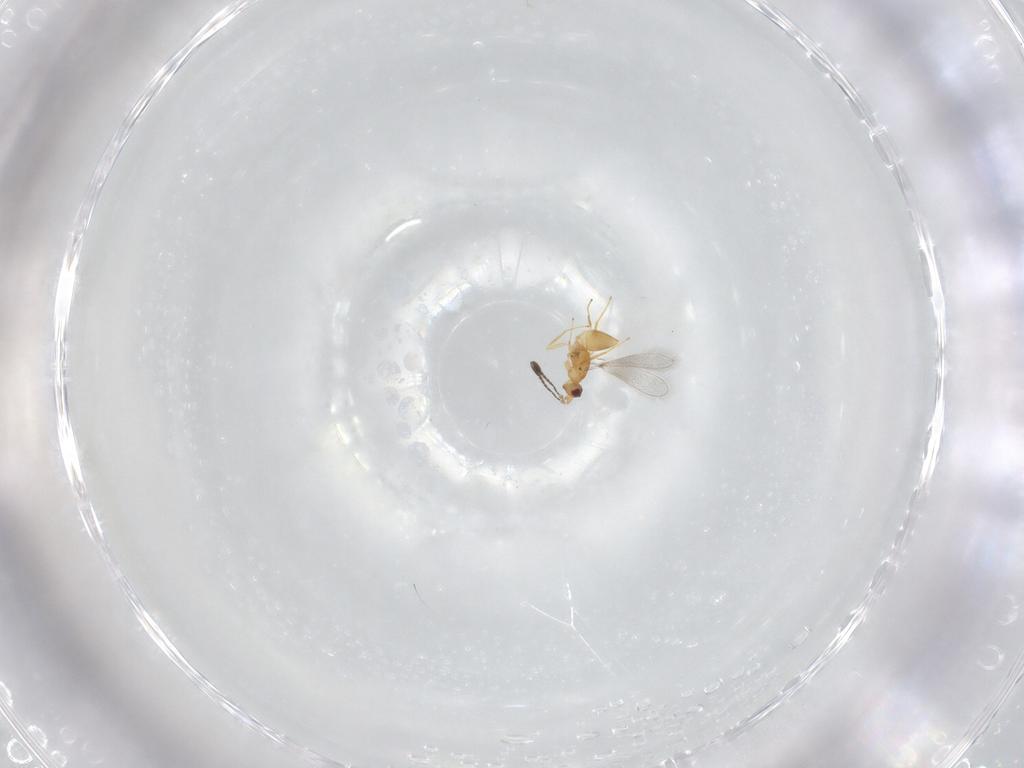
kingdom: Animalia
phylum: Arthropoda
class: Insecta
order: Hymenoptera
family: Mymaridae
